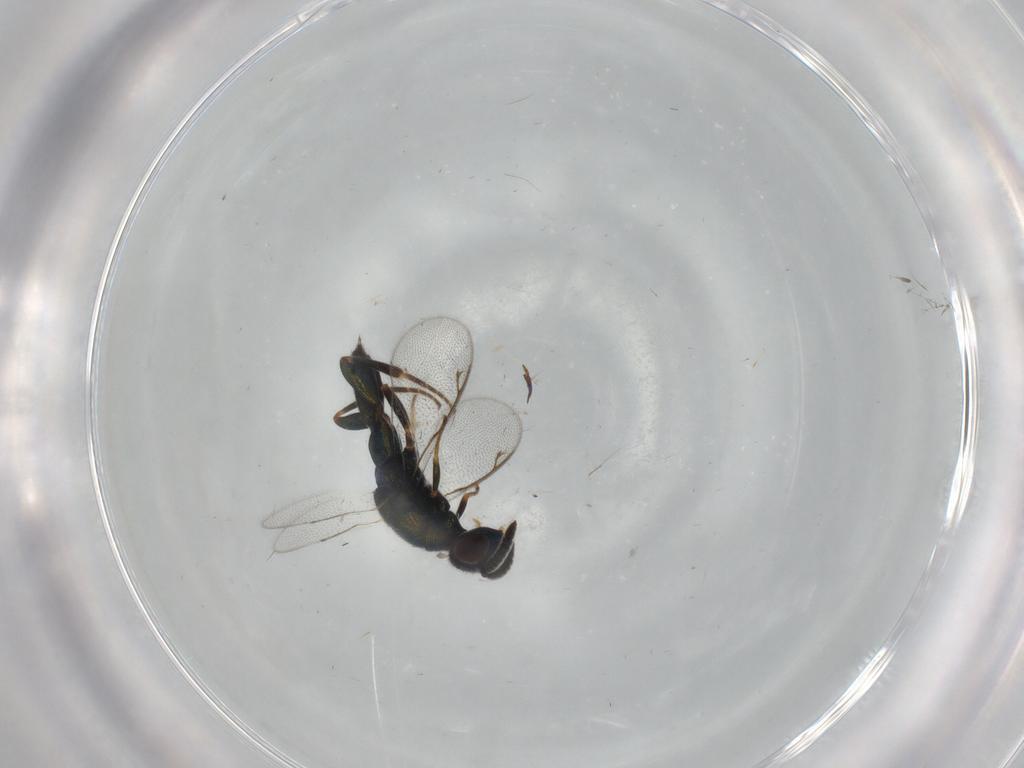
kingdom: Animalia
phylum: Arthropoda
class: Insecta
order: Hymenoptera
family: Cleonyminae
